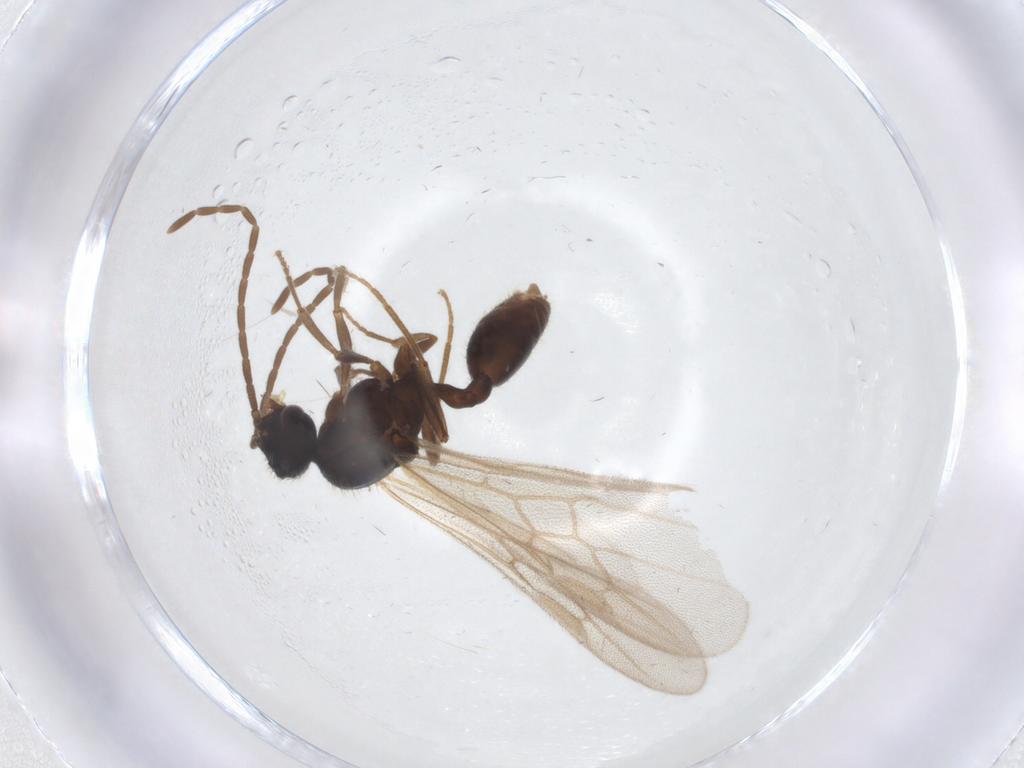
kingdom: Animalia
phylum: Arthropoda
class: Insecta
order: Hymenoptera
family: Formicidae
